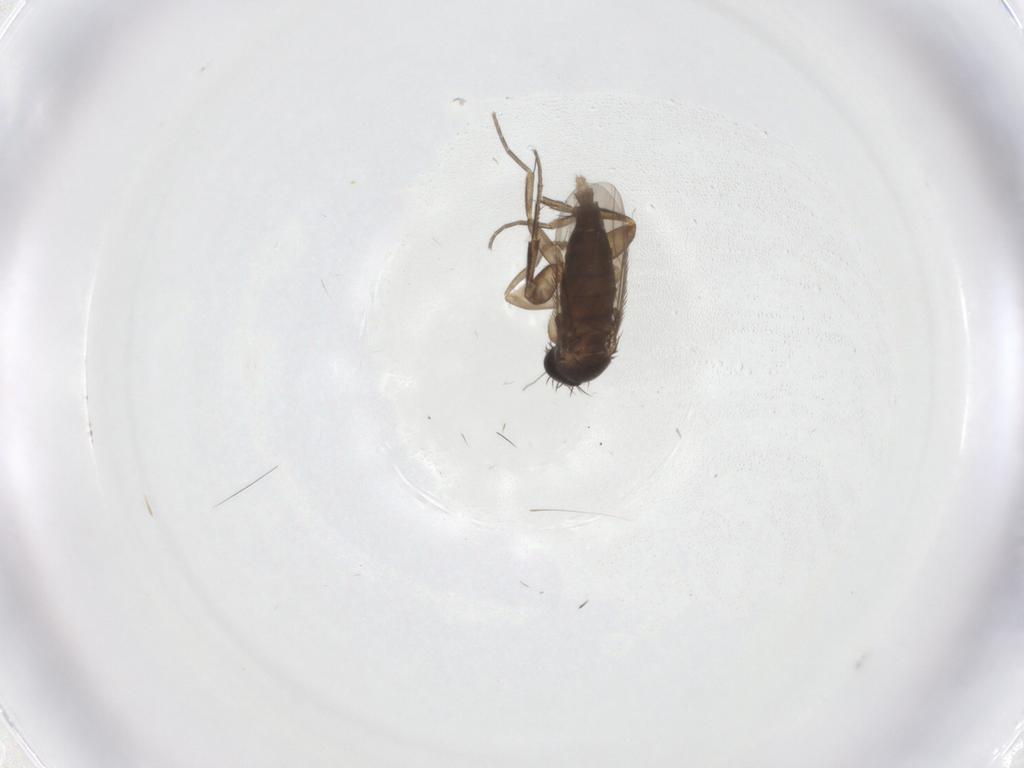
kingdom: Animalia
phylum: Arthropoda
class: Insecta
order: Diptera
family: Phoridae
